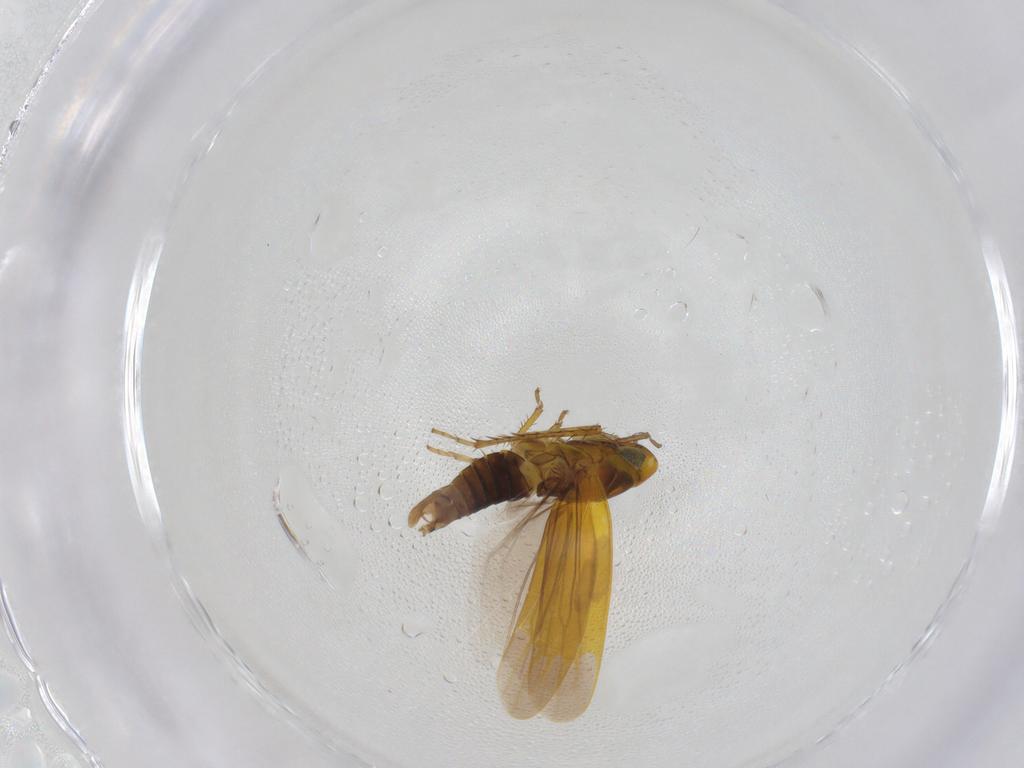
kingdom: Animalia
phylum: Arthropoda
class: Insecta
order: Hemiptera
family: Cicadellidae
